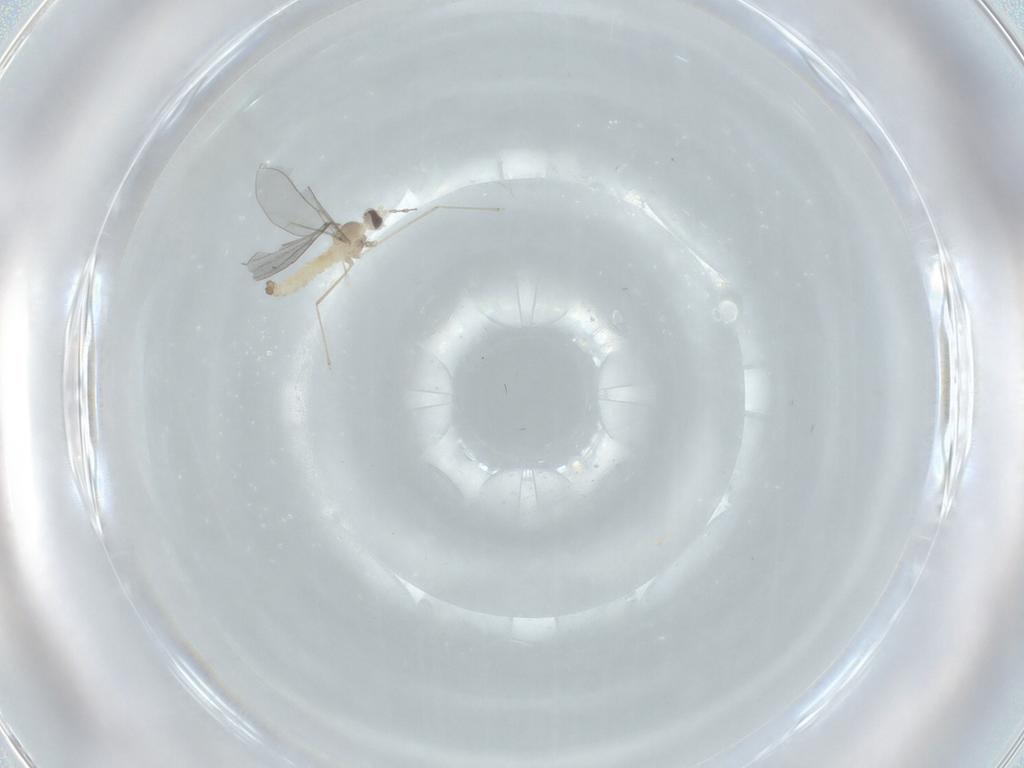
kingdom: Animalia
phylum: Arthropoda
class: Insecta
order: Diptera
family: Cecidomyiidae
